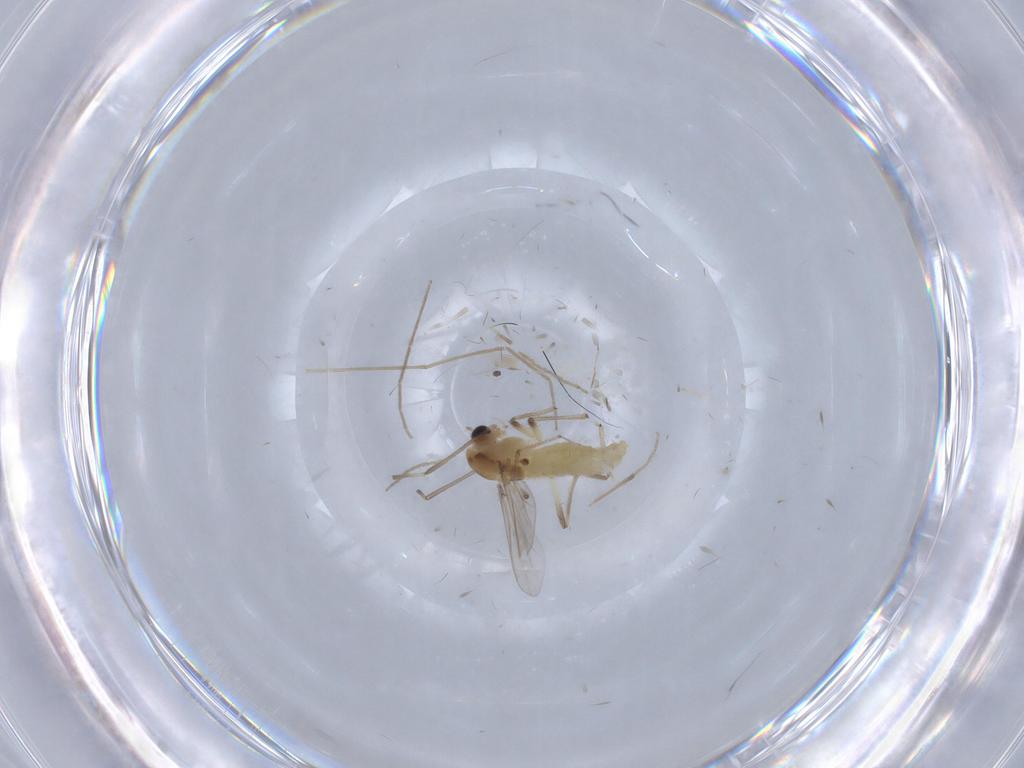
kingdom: Animalia
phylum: Arthropoda
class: Insecta
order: Diptera
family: Chironomidae
